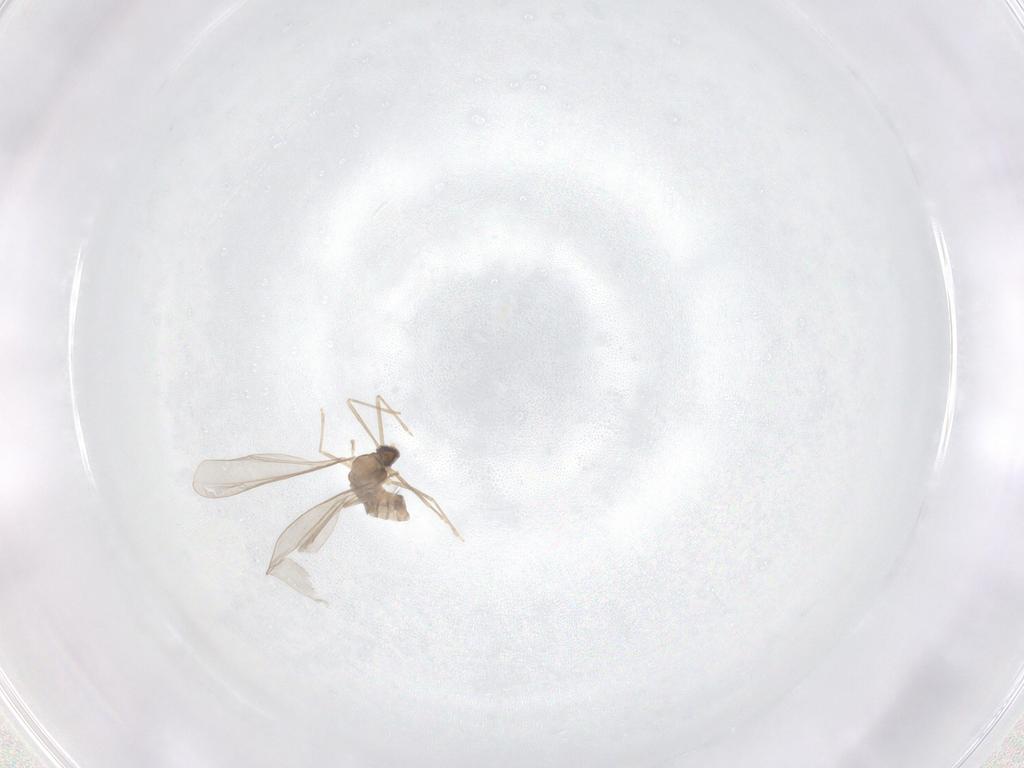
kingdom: Animalia
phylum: Arthropoda
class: Insecta
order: Diptera
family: Cecidomyiidae
